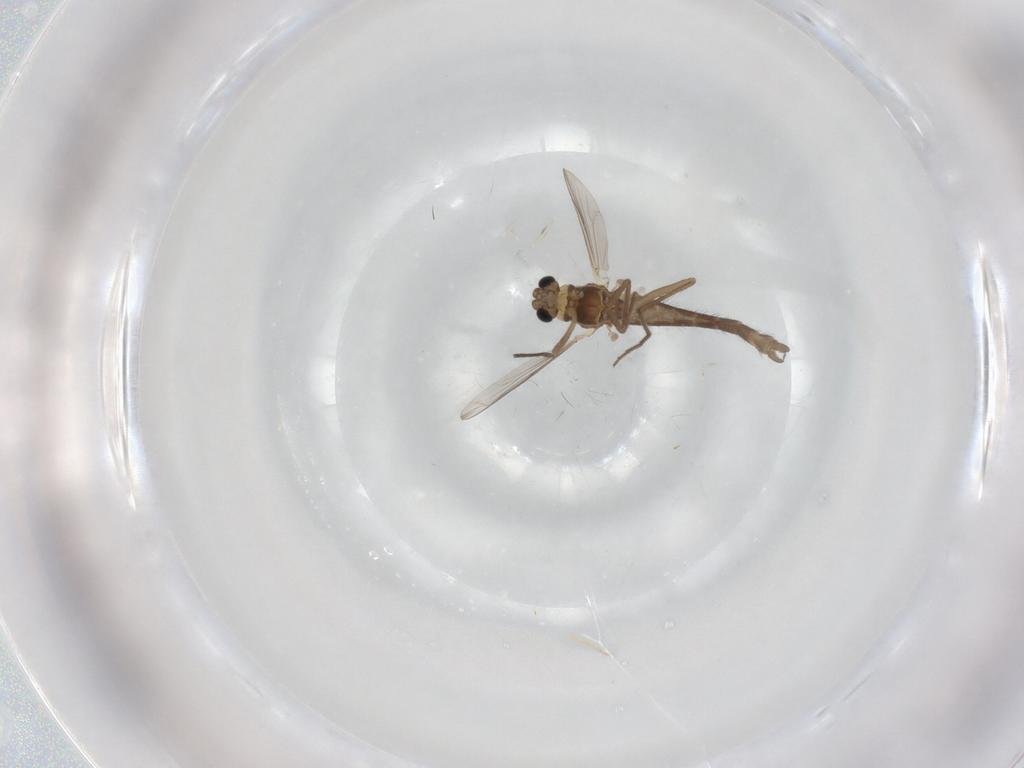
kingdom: Animalia
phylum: Arthropoda
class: Insecta
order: Diptera
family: Chironomidae
